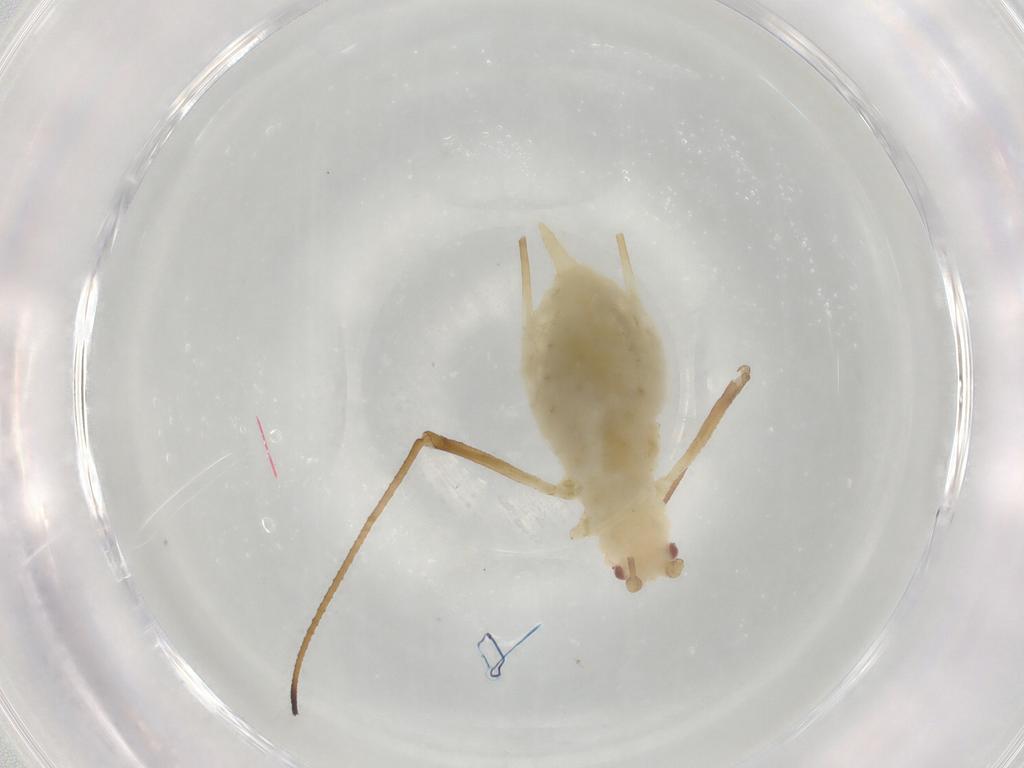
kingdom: Animalia
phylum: Arthropoda
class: Insecta
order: Hemiptera
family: Aphididae
